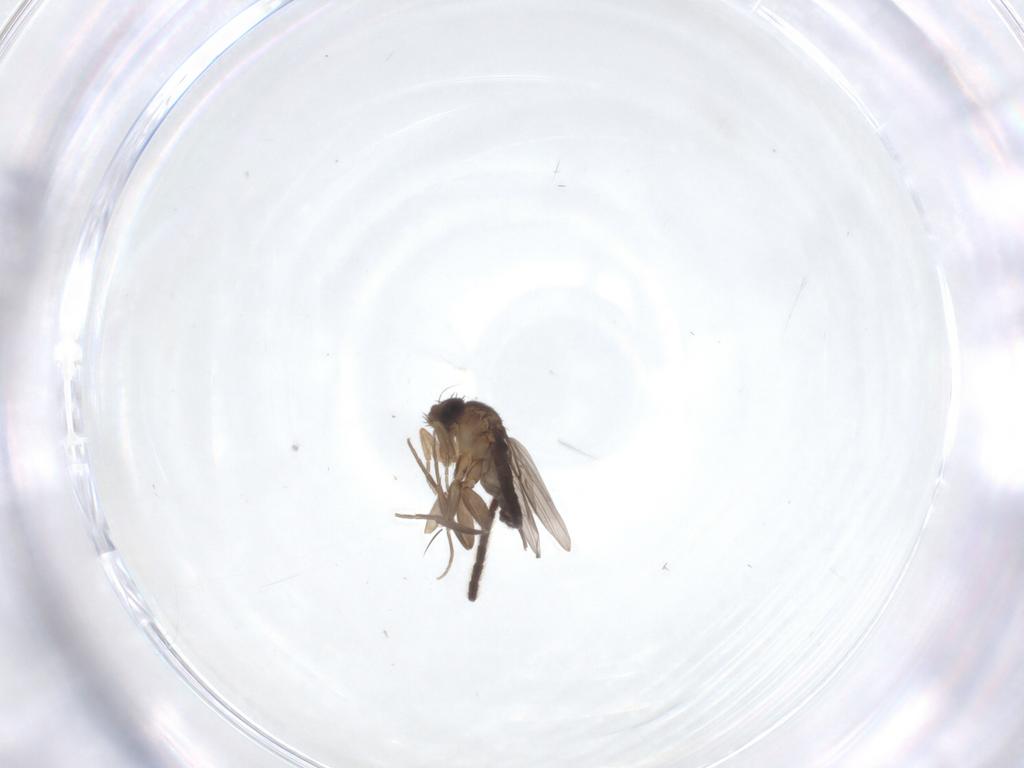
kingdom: Animalia
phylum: Arthropoda
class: Insecta
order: Diptera
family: Phoridae
